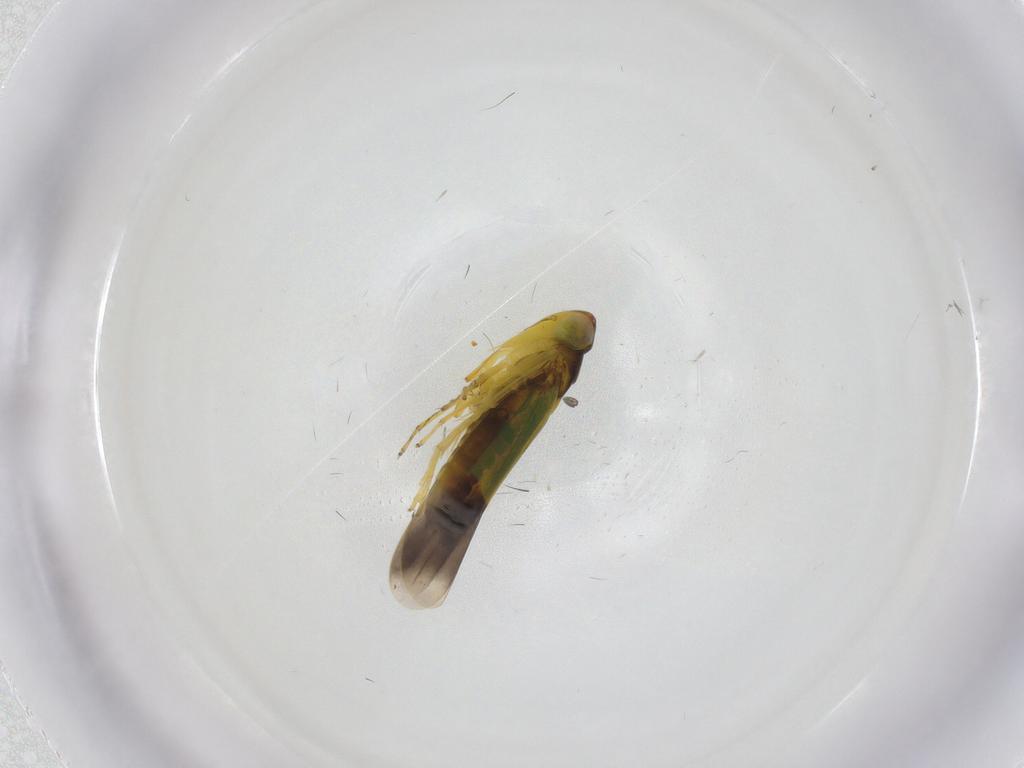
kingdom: Animalia
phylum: Arthropoda
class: Insecta
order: Hemiptera
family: Cicadellidae
